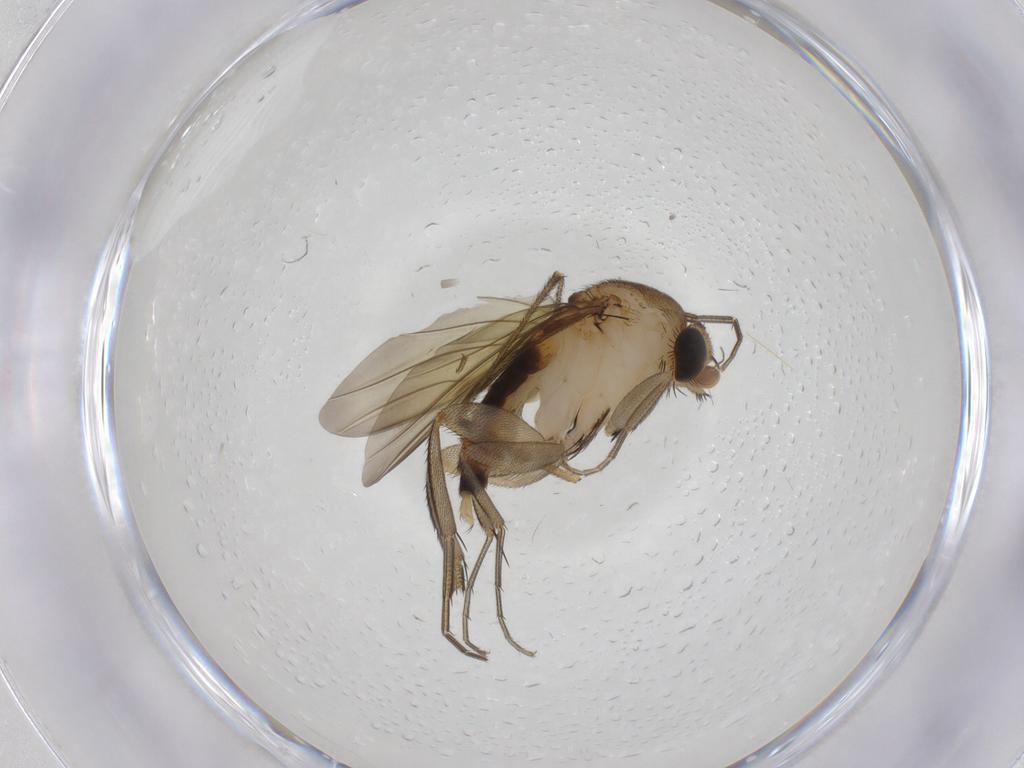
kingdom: Animalia
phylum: Arthropoda
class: Insecta
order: Diptera
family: Keroplatidae
